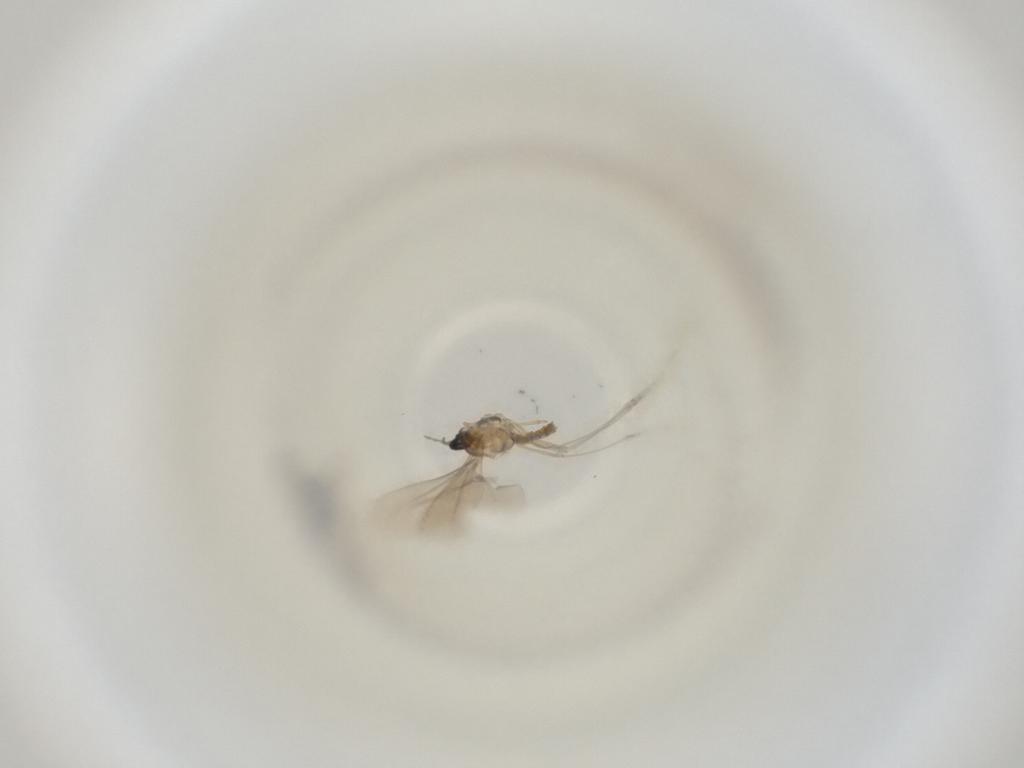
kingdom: Animalia
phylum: Arthropoda
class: Insecta
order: Diptera
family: Cecidomyiidae
